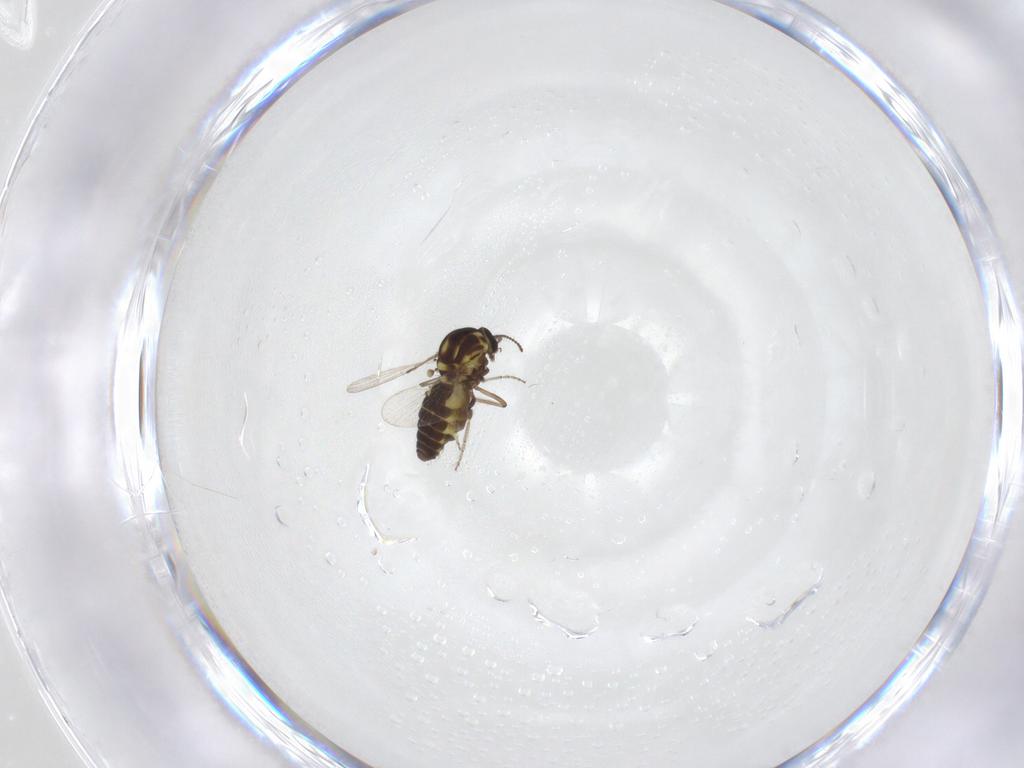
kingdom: Animalia
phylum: Arthropoda
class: Insecta
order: Diptera
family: Ceratopogonidae
